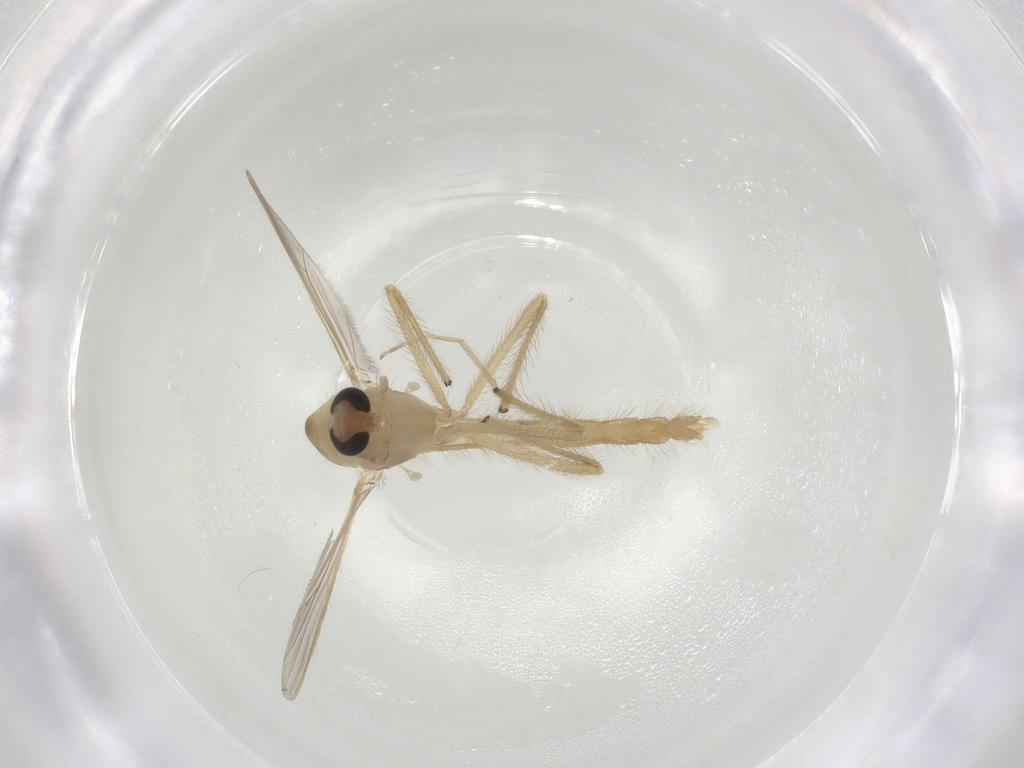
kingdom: Animalia
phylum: Arthropoda
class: Insecta
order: Diptera
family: Chironomidae
